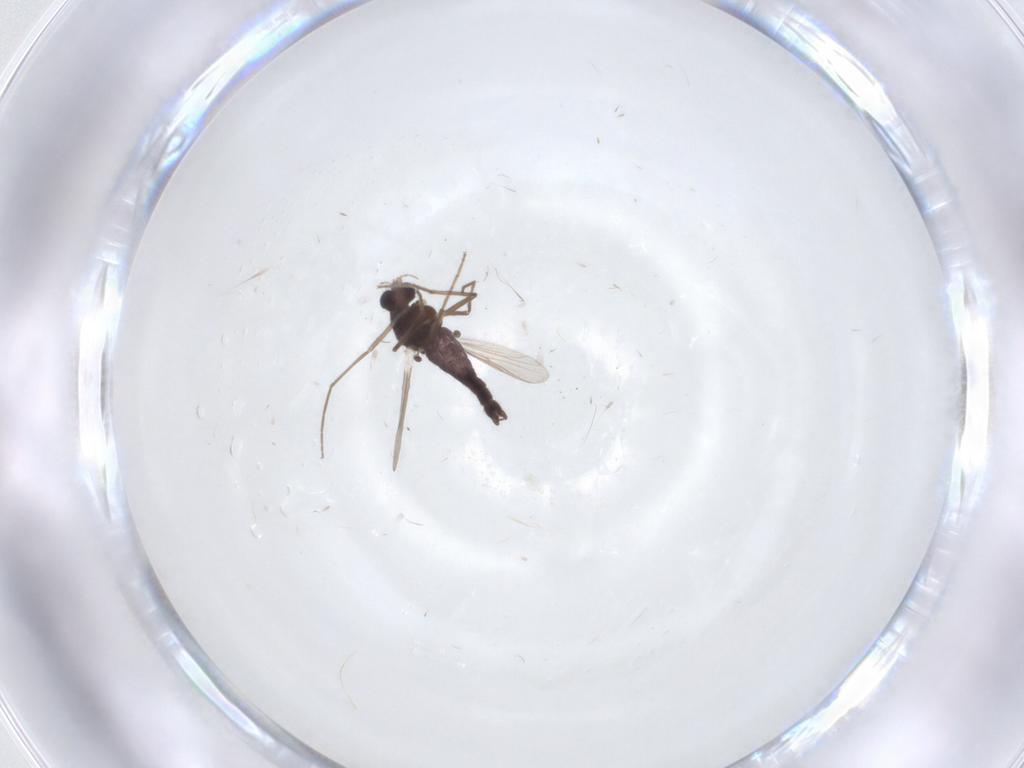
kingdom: Animalia
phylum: Arthropoda
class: Insecta
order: Diptera
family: Chironomidae
